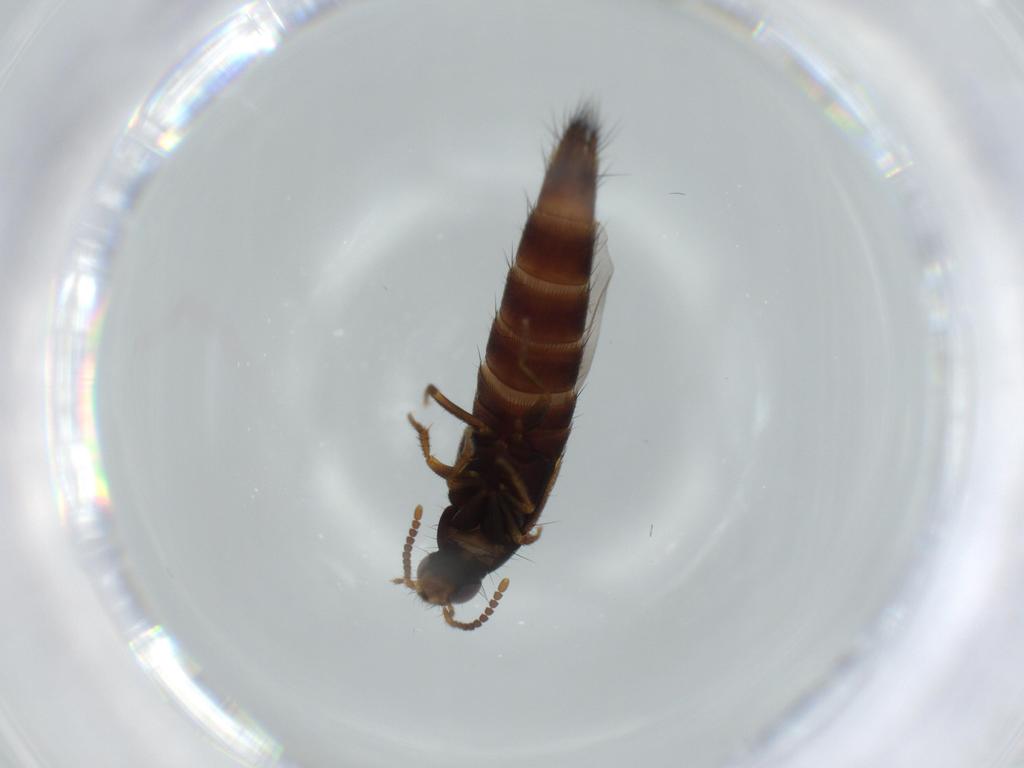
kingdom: Animalia
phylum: Arthropoda
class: Insecta
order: Coleoptera
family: Staphylinidae
